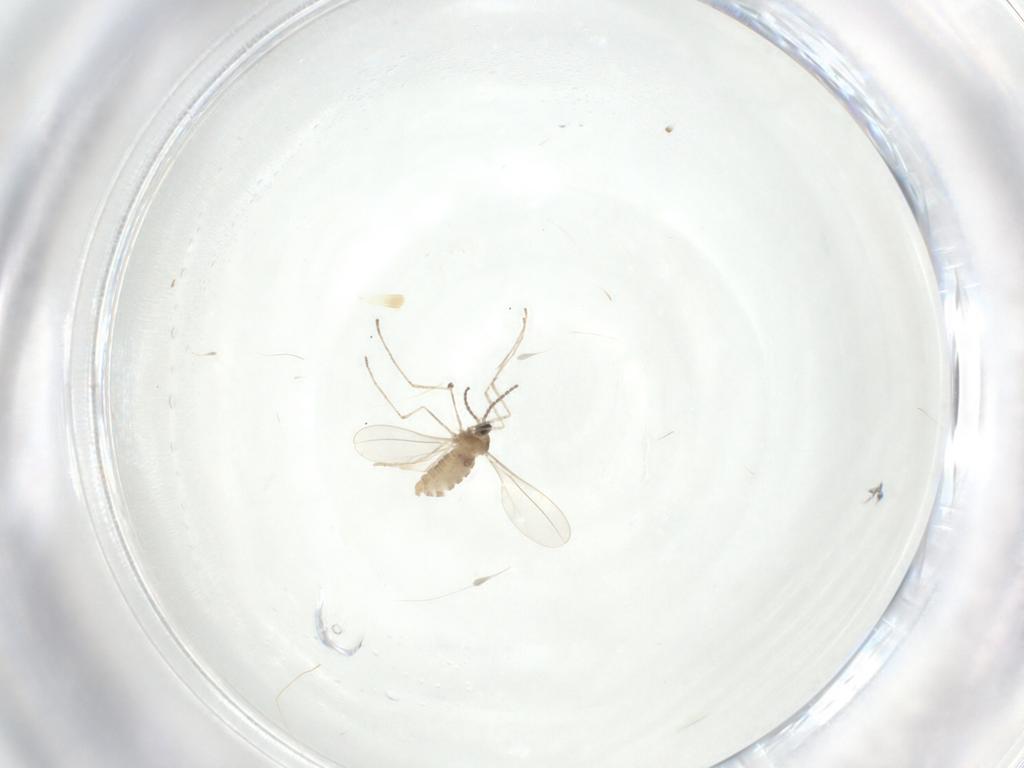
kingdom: Animalia
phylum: Arthropoda
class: Insecta
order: Diptera
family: Cecidomyiidae
